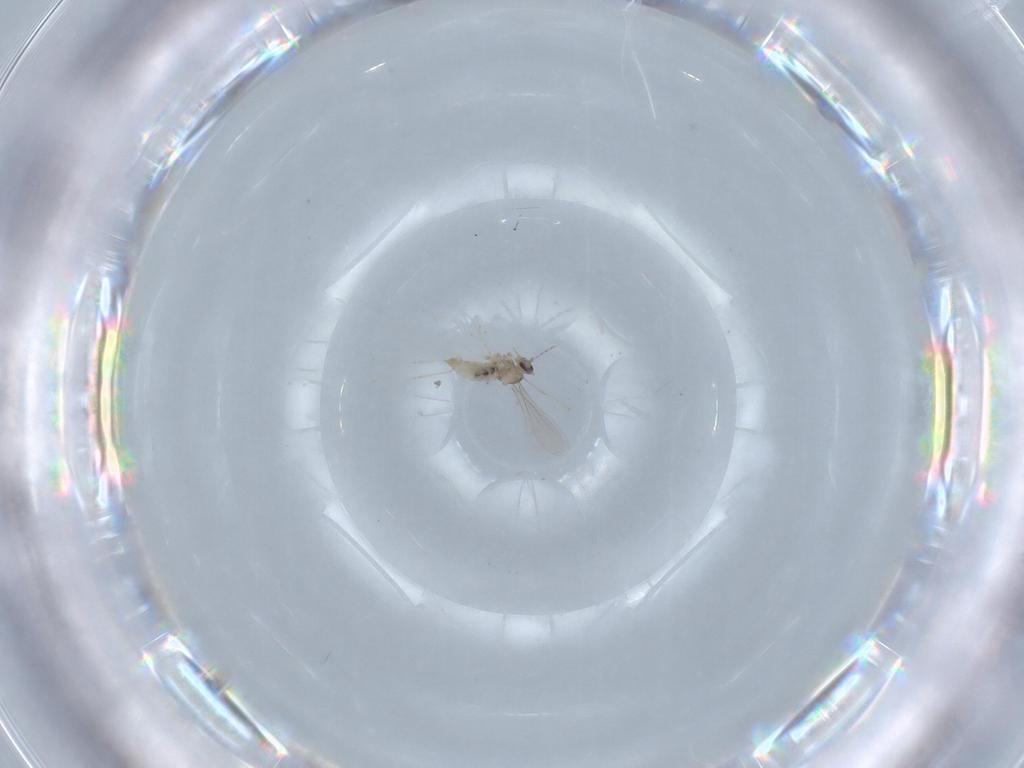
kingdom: Animalia
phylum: Arthropoda
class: Insecta
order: Diptera
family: Cecidomyiidae
